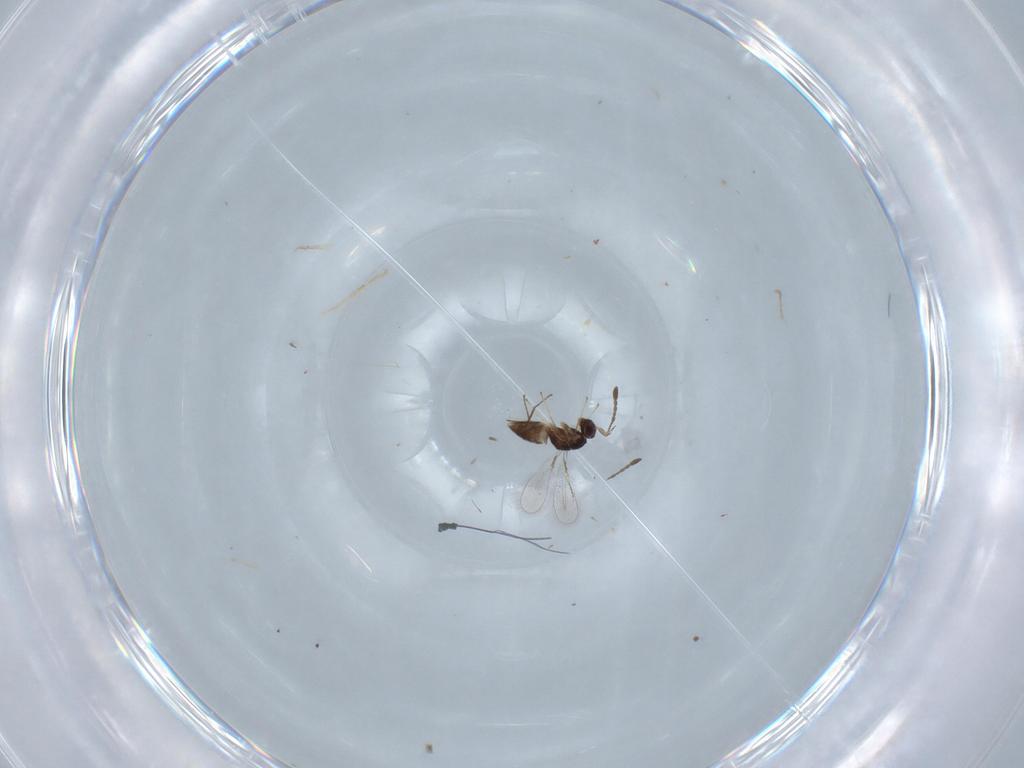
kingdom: Animalia
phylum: Arthropoda
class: Insecta
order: Hymenoptera
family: Mymaridae
